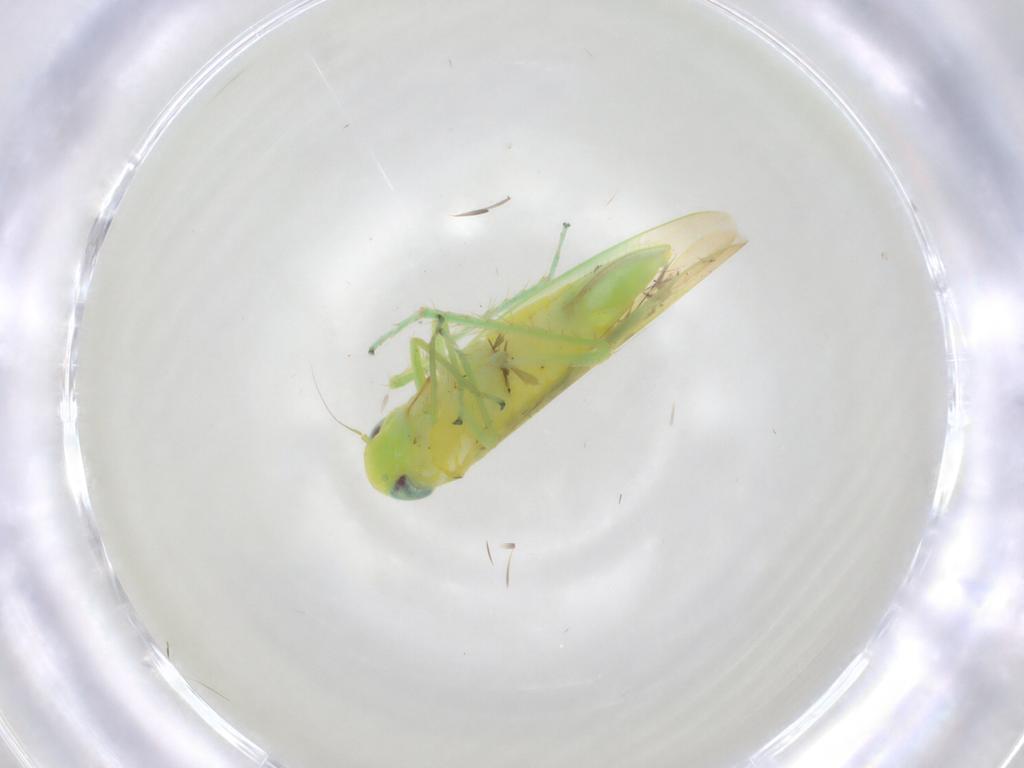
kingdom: Animalia
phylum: Arthropoda
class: Insecta
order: Hemiptera
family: Cicadellidae
